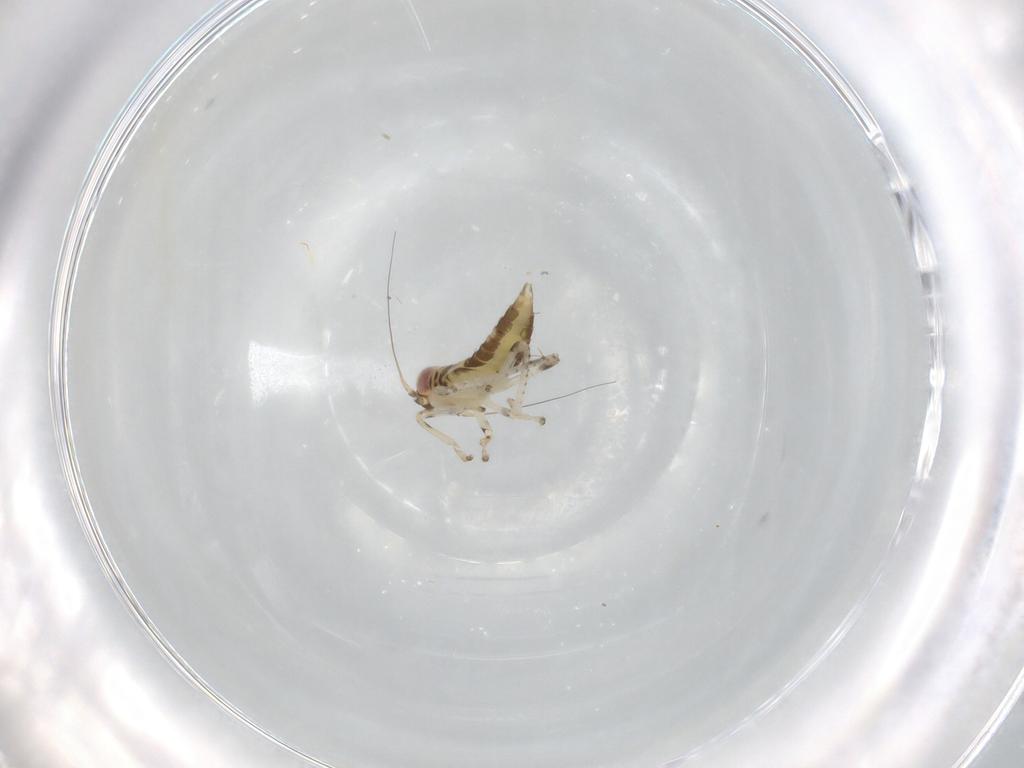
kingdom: Animalia
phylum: Arthropoda
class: Insecta
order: Hemiptera
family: Cicadellidae
